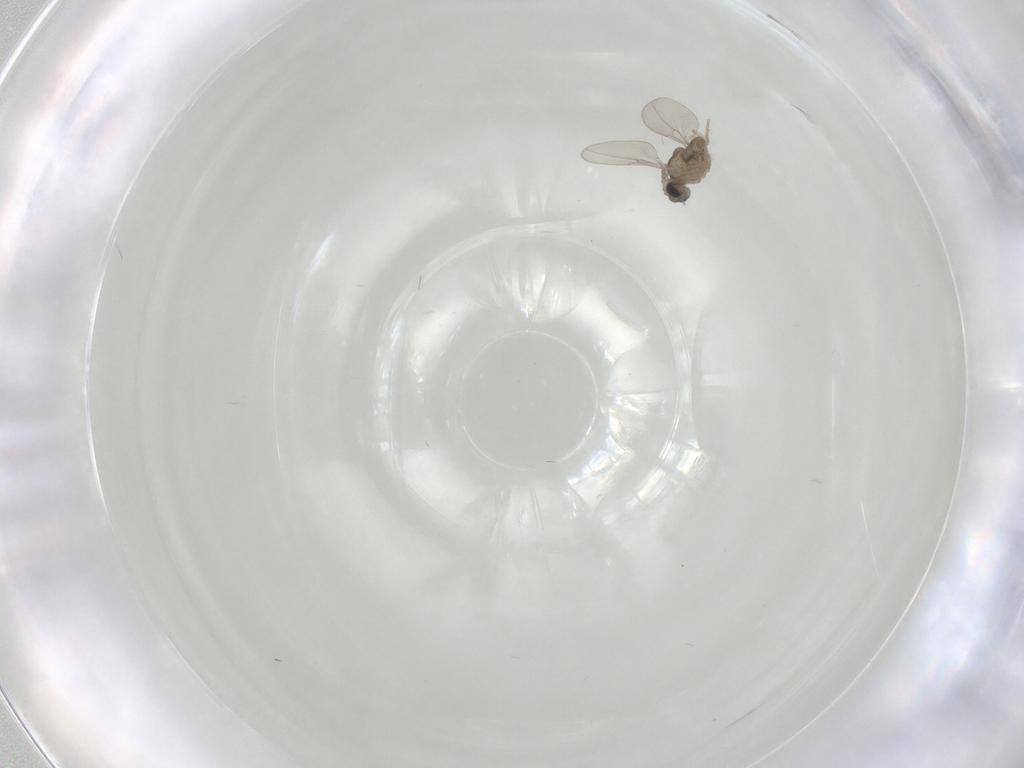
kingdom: Animalia
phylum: Arthropoda
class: Insecta
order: Diptera
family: Cecidomyiidae
